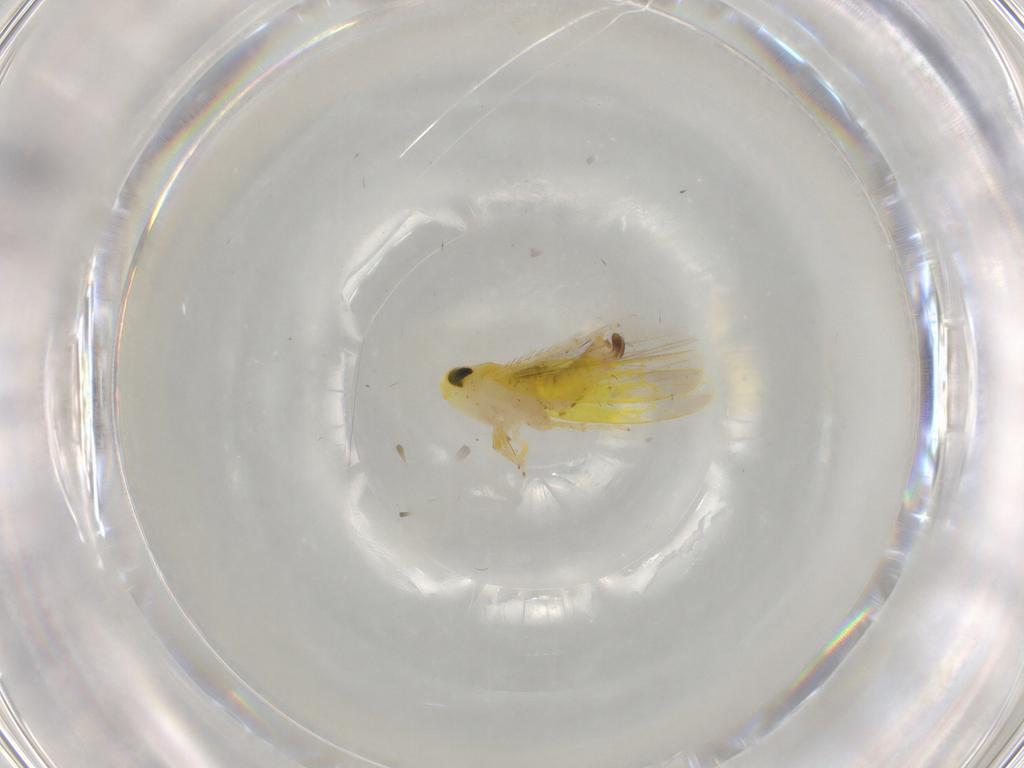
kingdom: Animalia
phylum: Arthropoda
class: Insecta
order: Hemiptera
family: Cicadellidae
